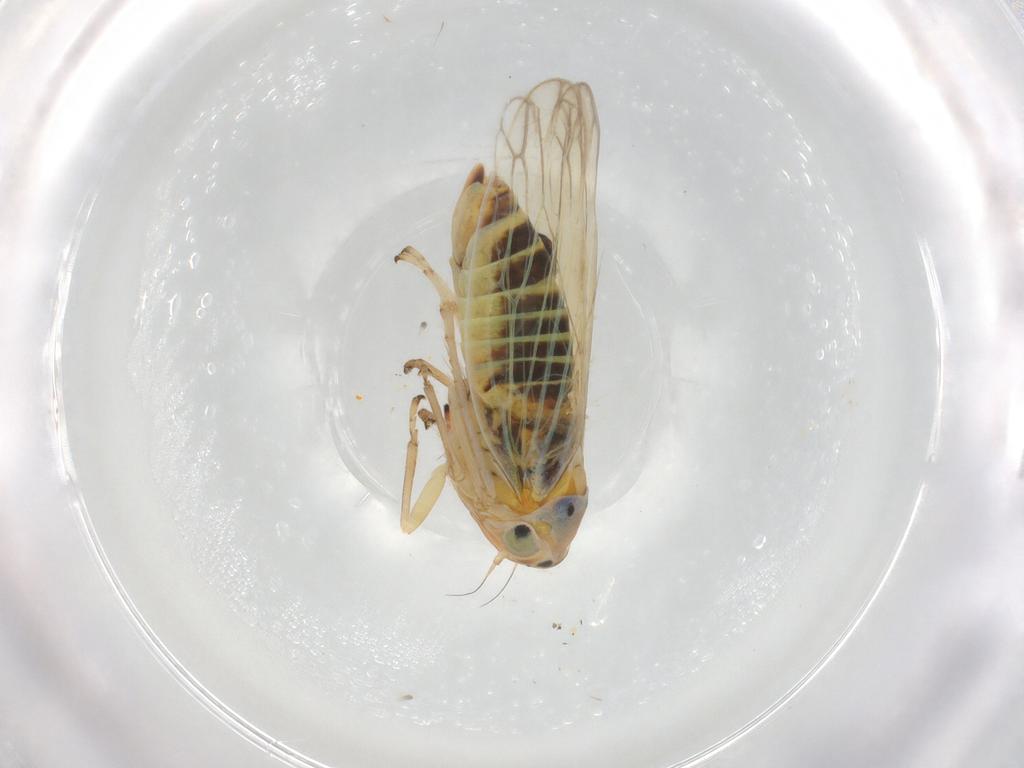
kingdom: Animalia
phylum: Arthropoda
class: Insecta
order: Hemiptera
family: Cicadellidae
